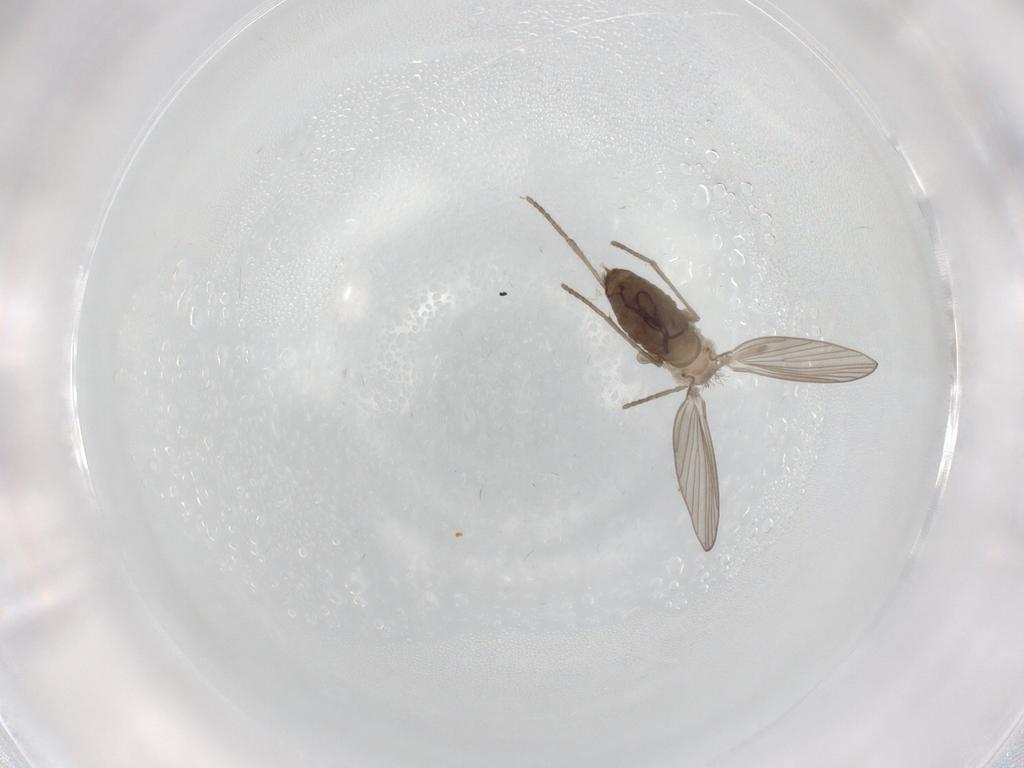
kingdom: Animalia
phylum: Arthropoda
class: Insecta
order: Diptera
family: Psychodidae
